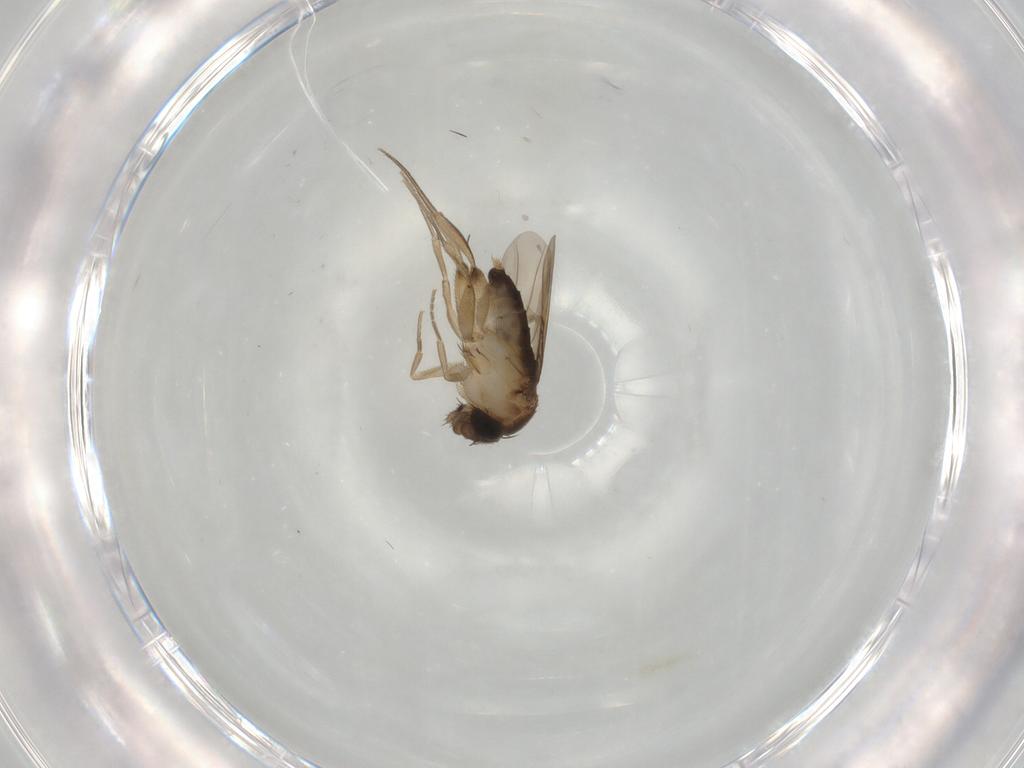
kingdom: Animalia
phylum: Arthropoda
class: Insecta
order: Diptera
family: Phoridae
